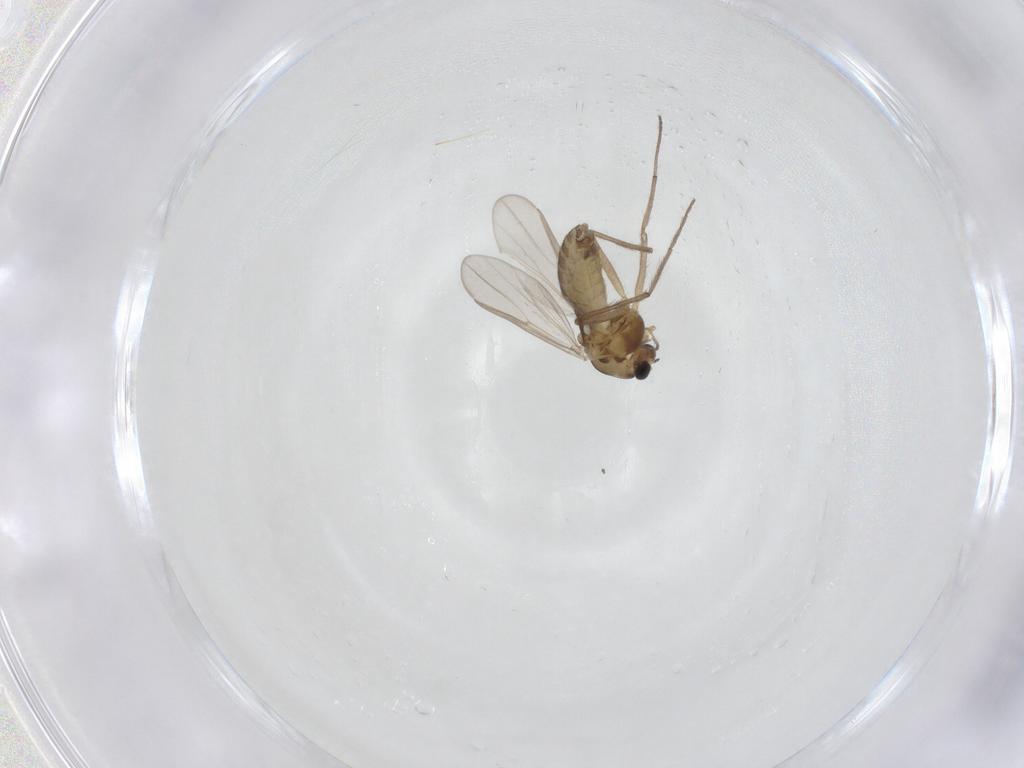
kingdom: Animalia
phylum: Arthropoda
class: Insecta
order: Diptera
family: Chironomidae
